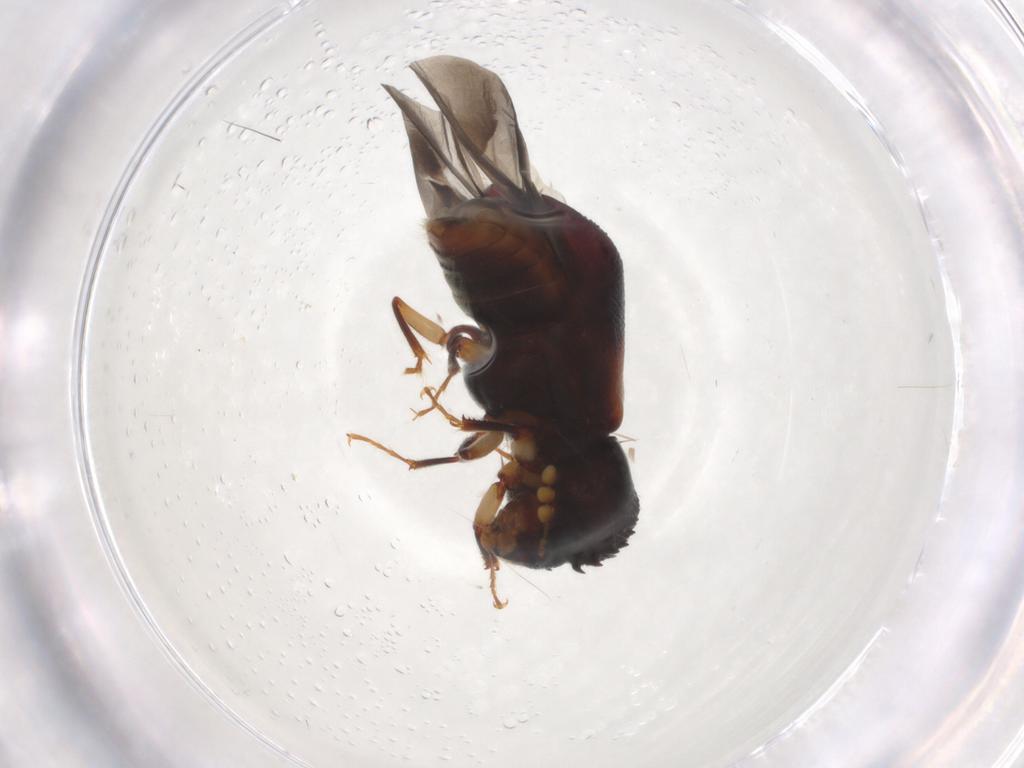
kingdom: Animalia
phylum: Arthropoda
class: Insecta
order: Coleoptera
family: Bostrichidae
